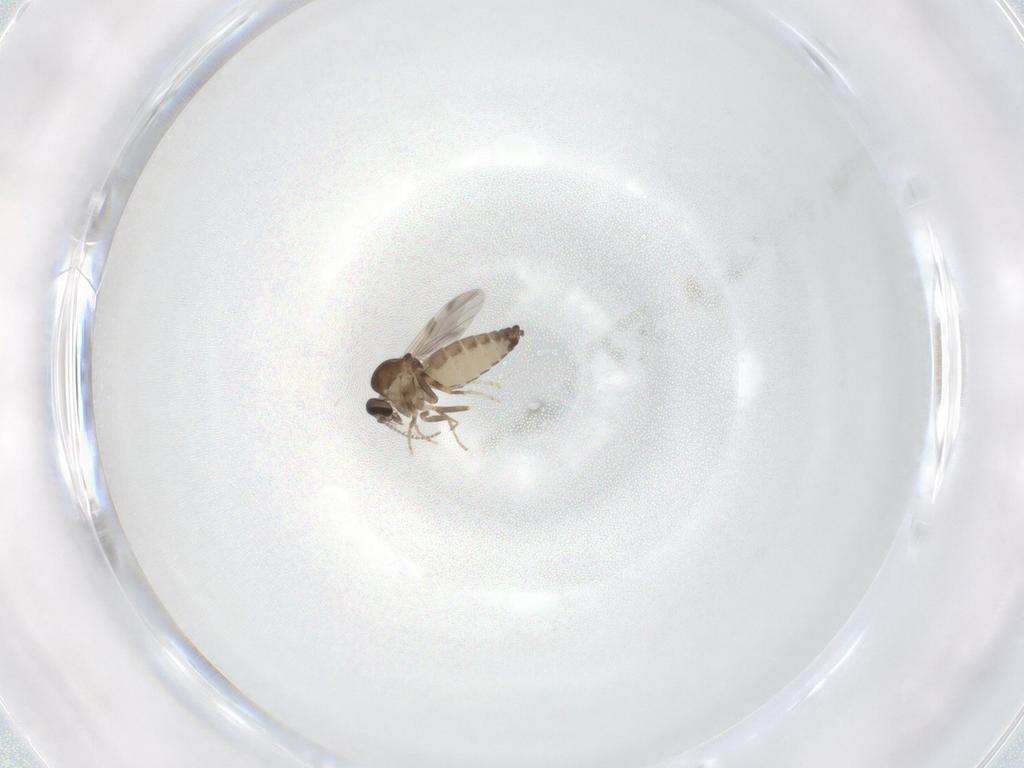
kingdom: Animalia
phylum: Arthropoda
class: Insecta
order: Diptera
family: Ceratopogonidae
